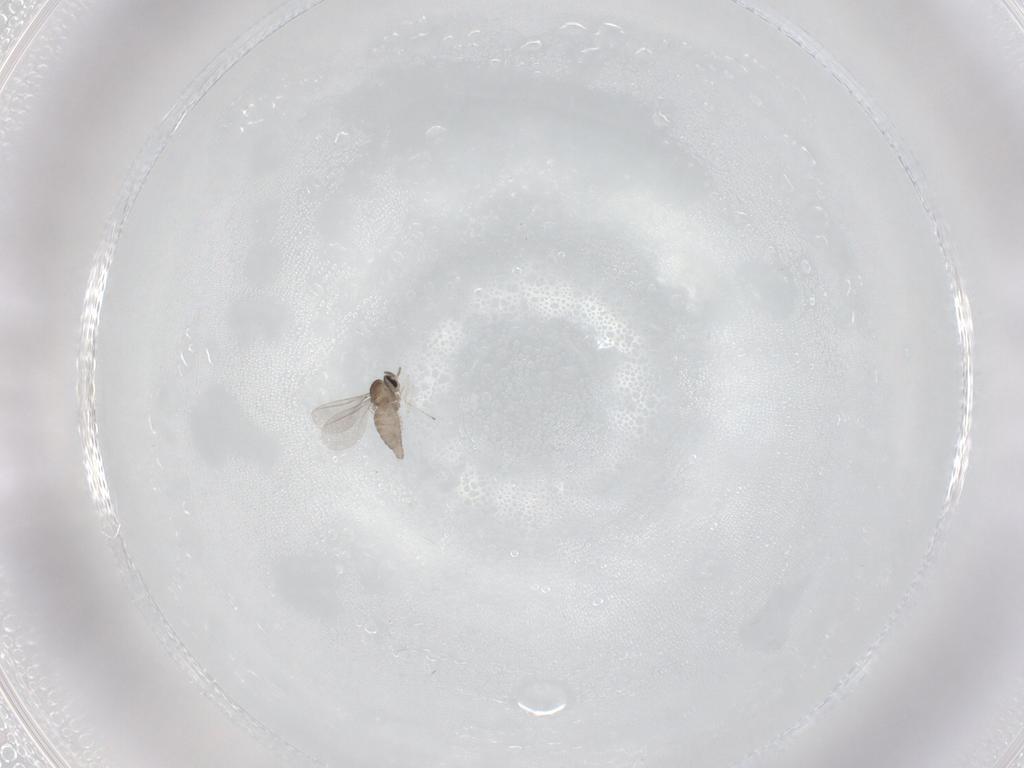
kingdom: Animalia
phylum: Arthropoda
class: Insecta
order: Diptera
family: Cecidomyiidae
